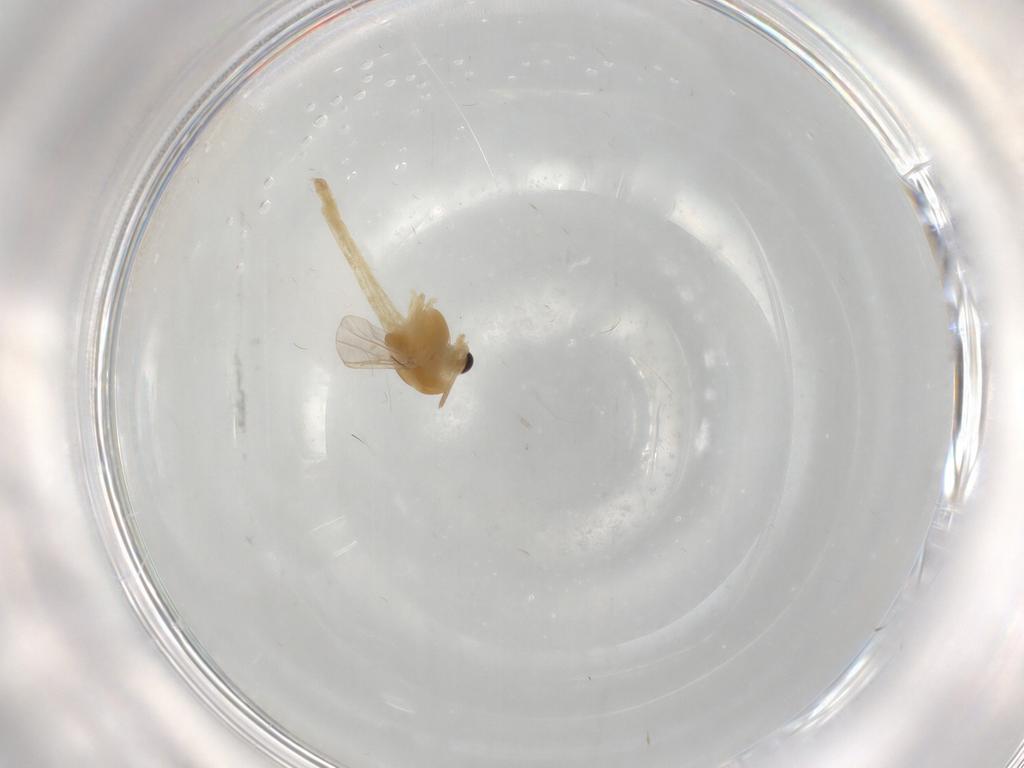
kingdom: Animalia
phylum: Arthropoda
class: Insecta
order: Diptera
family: Chironomidae
